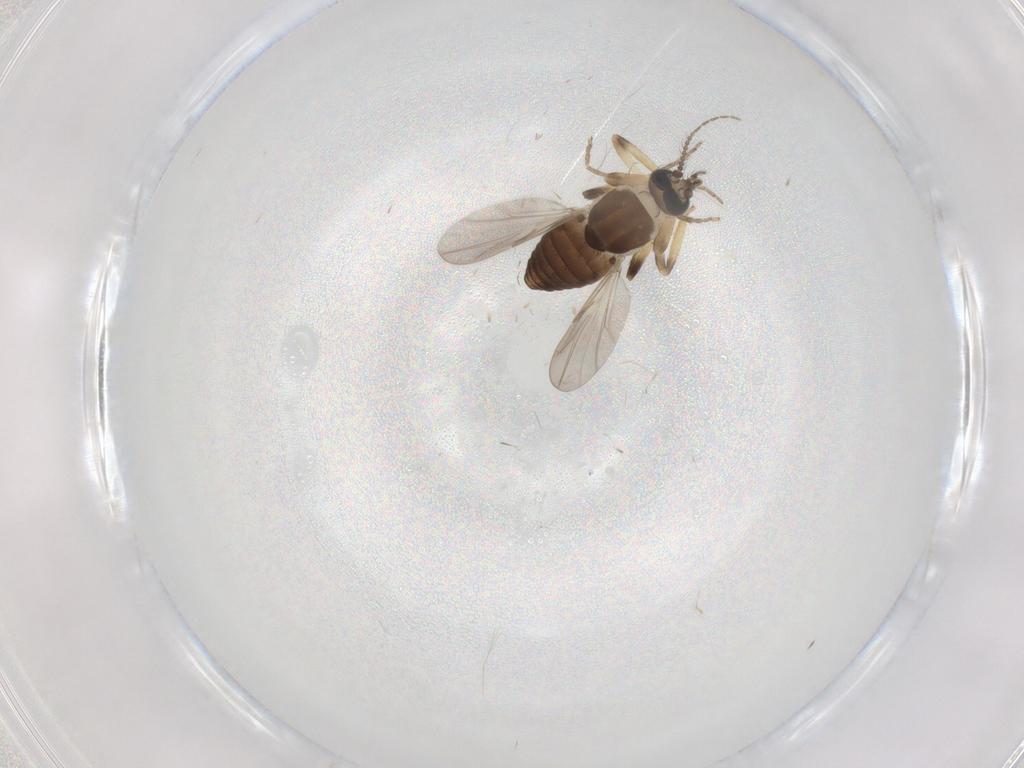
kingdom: Animalia
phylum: Arthropoda
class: Insecta
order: Diptera
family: Ceratopogonidae
